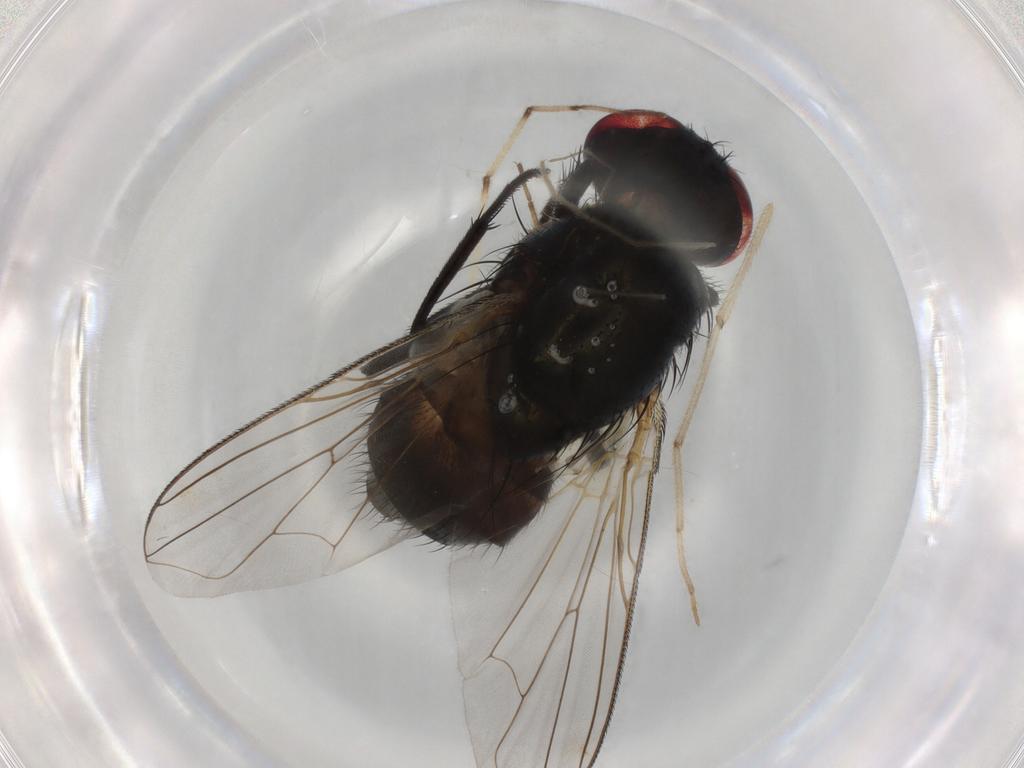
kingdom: Animalia
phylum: Arthropoda
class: Insecta
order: Diptera
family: Muscidae
